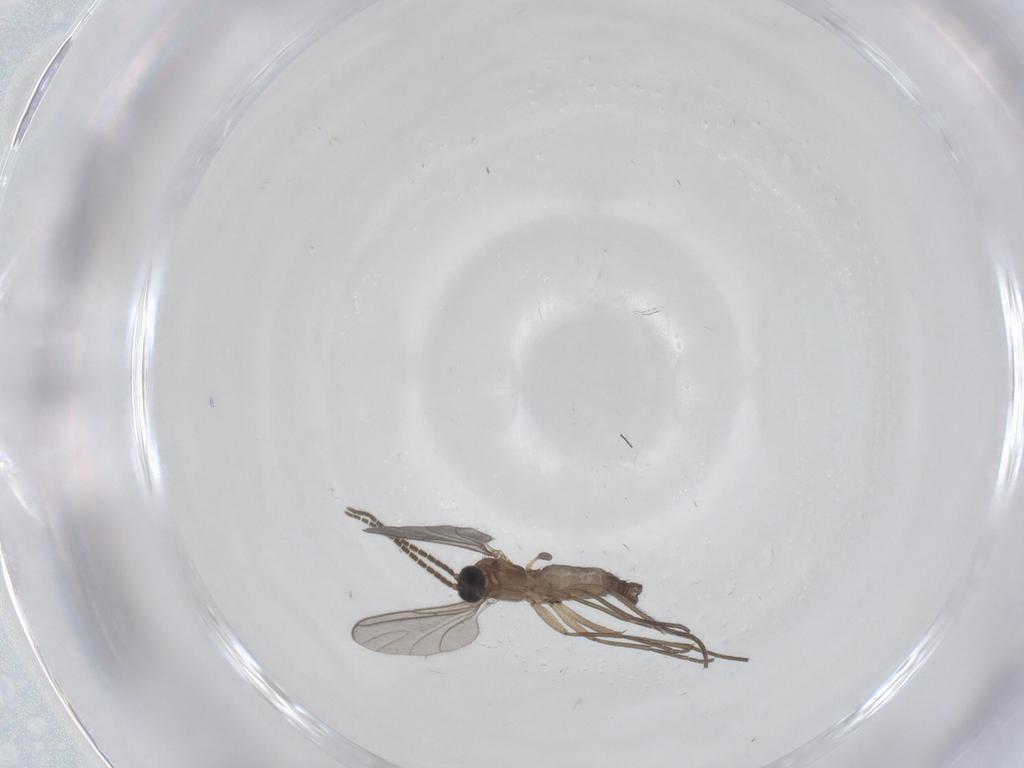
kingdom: Animalia
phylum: Arthropoda
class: Insecta
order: Diptera
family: Sciaridae
